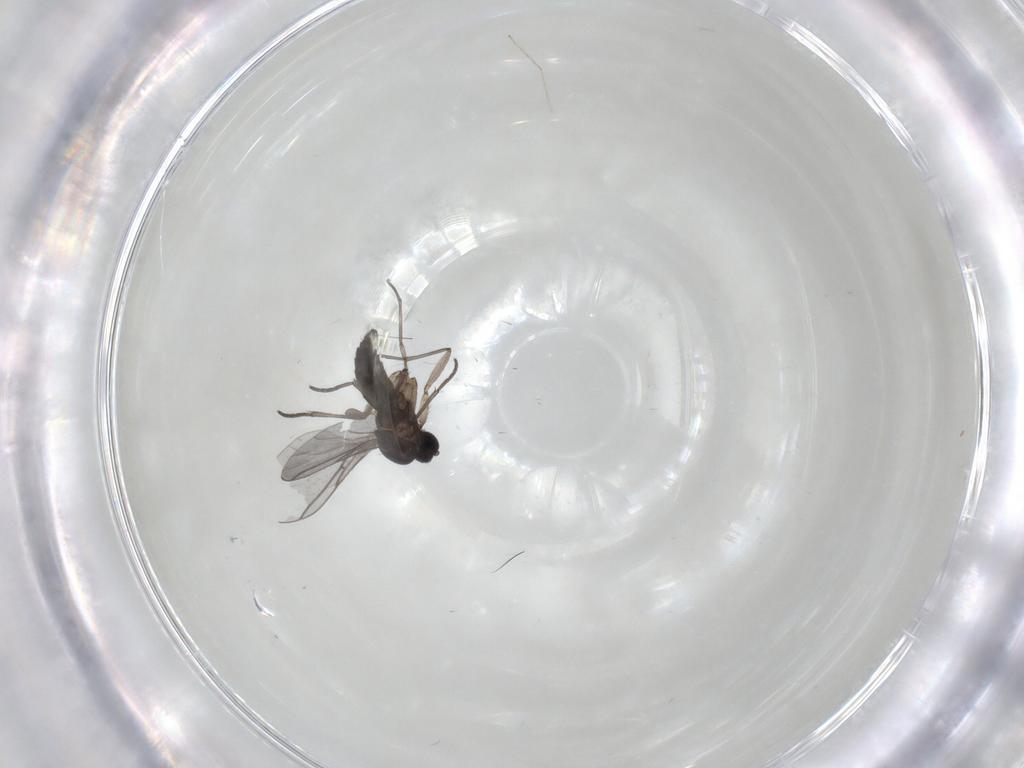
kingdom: Animalia
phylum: Arthropoda
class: Insecta
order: Diptera
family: Cecidomyiidae
